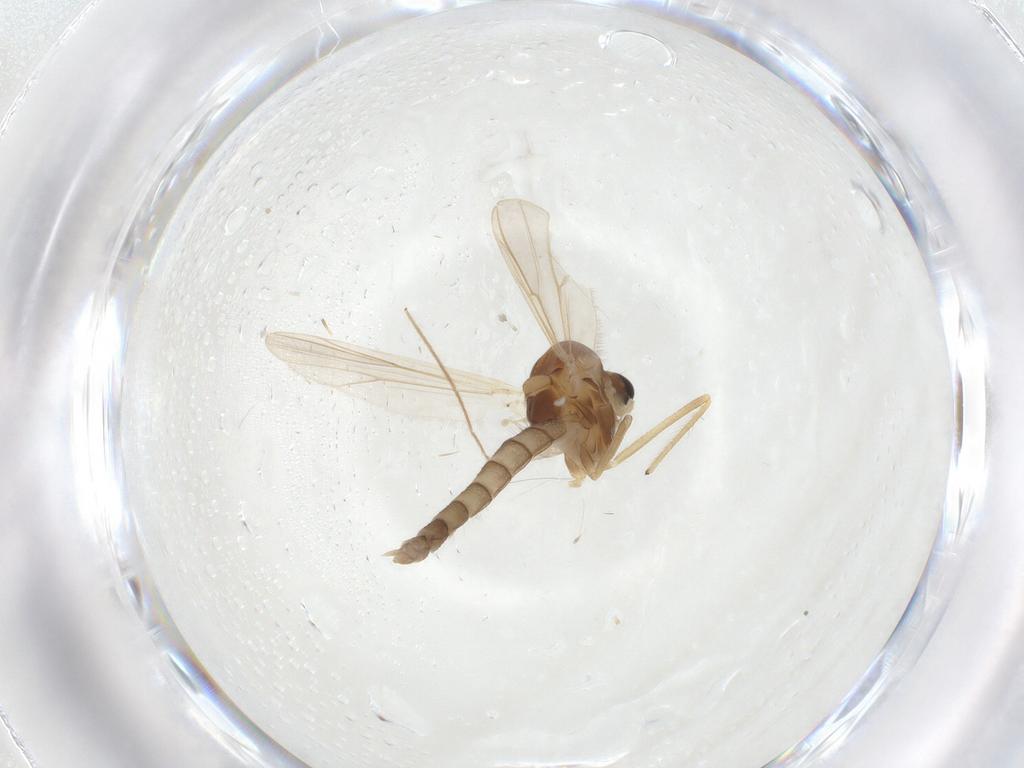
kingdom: Animalia
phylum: Arthropoda
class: Insecta
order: Diptera
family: Chironomidae
